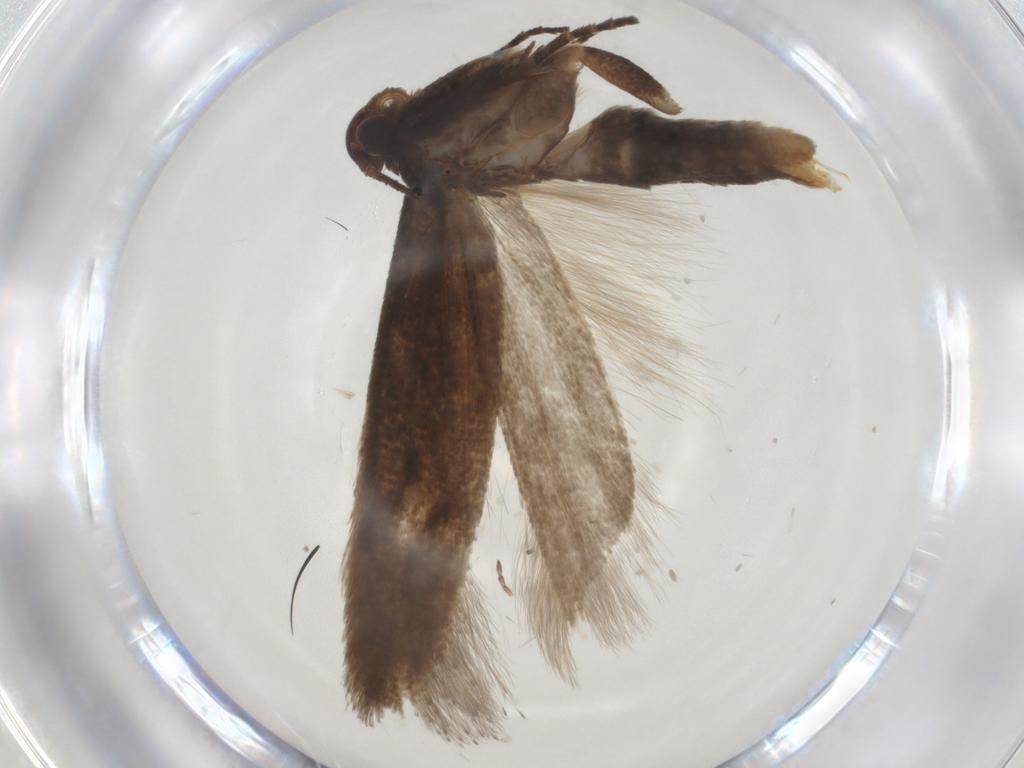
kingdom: Animalia
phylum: Arthropoda
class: Insecta
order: Lepidoptera
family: Gelechiidae
